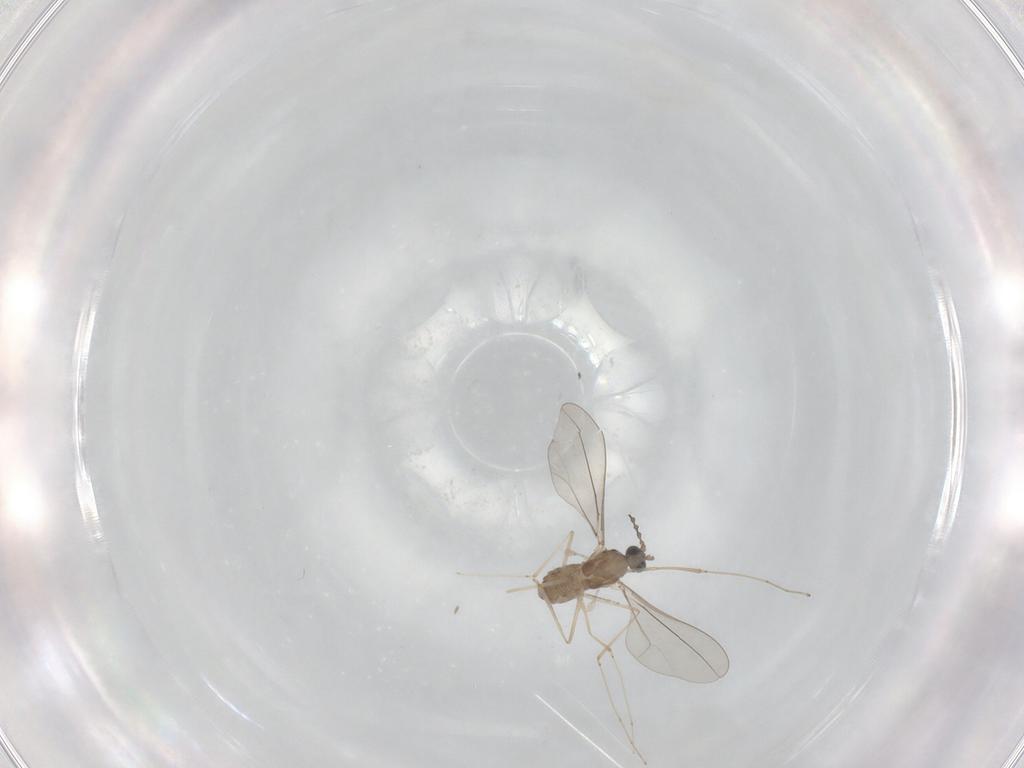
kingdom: Animalia
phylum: Arthropoda
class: Insecta
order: Diptera
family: Cecidomyiidae
